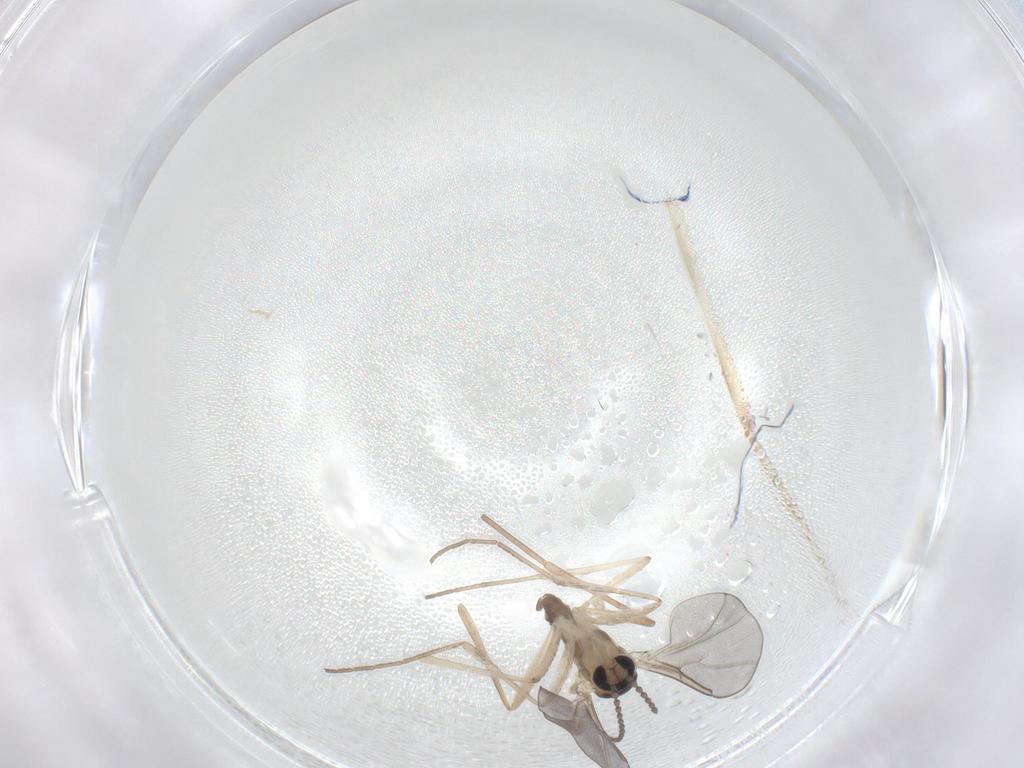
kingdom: Animalia
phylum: Arthropoda
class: Insecta
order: Diptera
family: Cecidomyiidae
